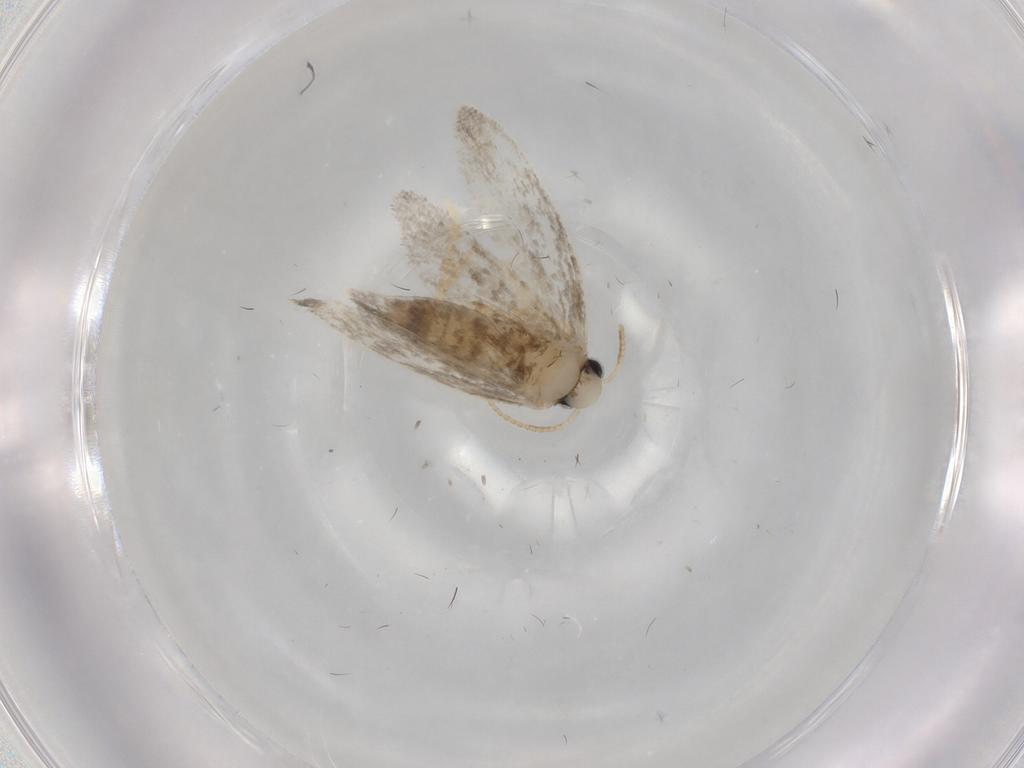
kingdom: Animalia
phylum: Arthropoda
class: Insecta
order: Lepidoptera
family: Psychidae
